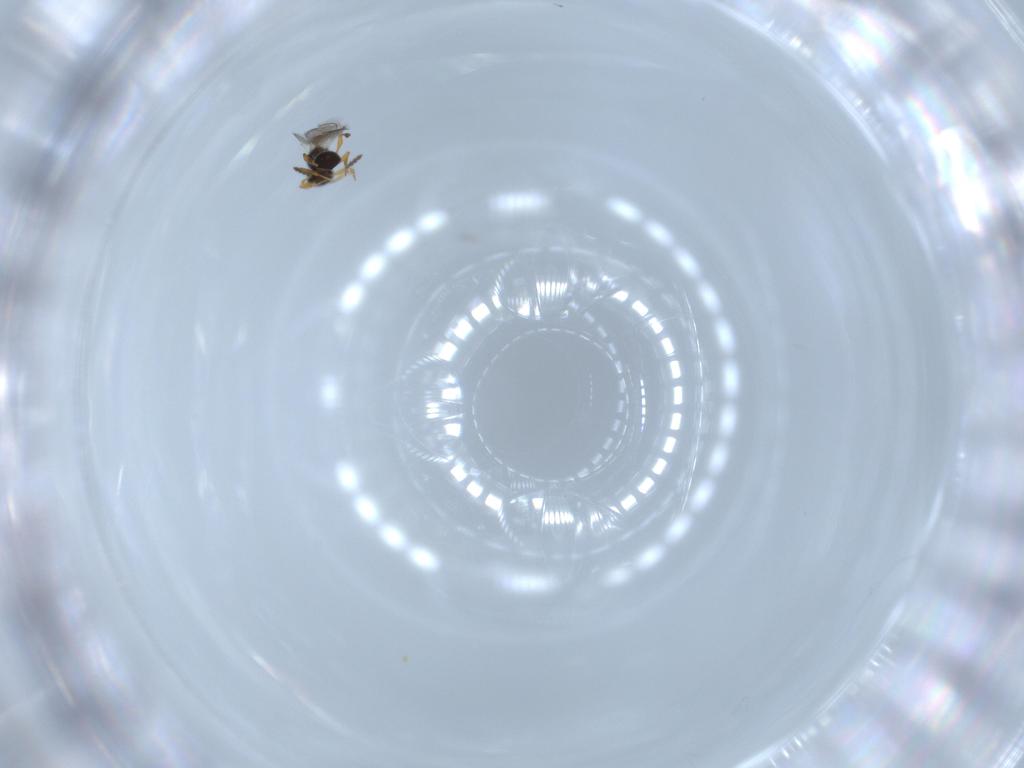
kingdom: Animalia
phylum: Arthropoda
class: Insecta
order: Hymenoptera
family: Platygastridae
